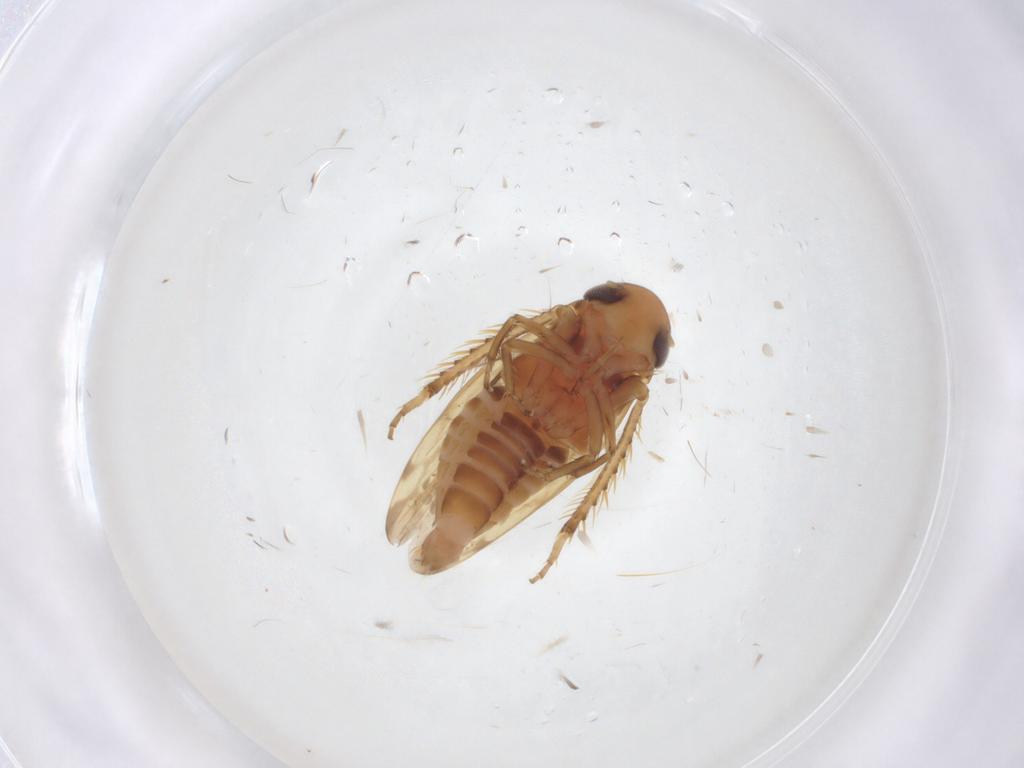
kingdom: Animalia
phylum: Arthropoda
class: Insecta
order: Hemiptera
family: Cicadellidae
